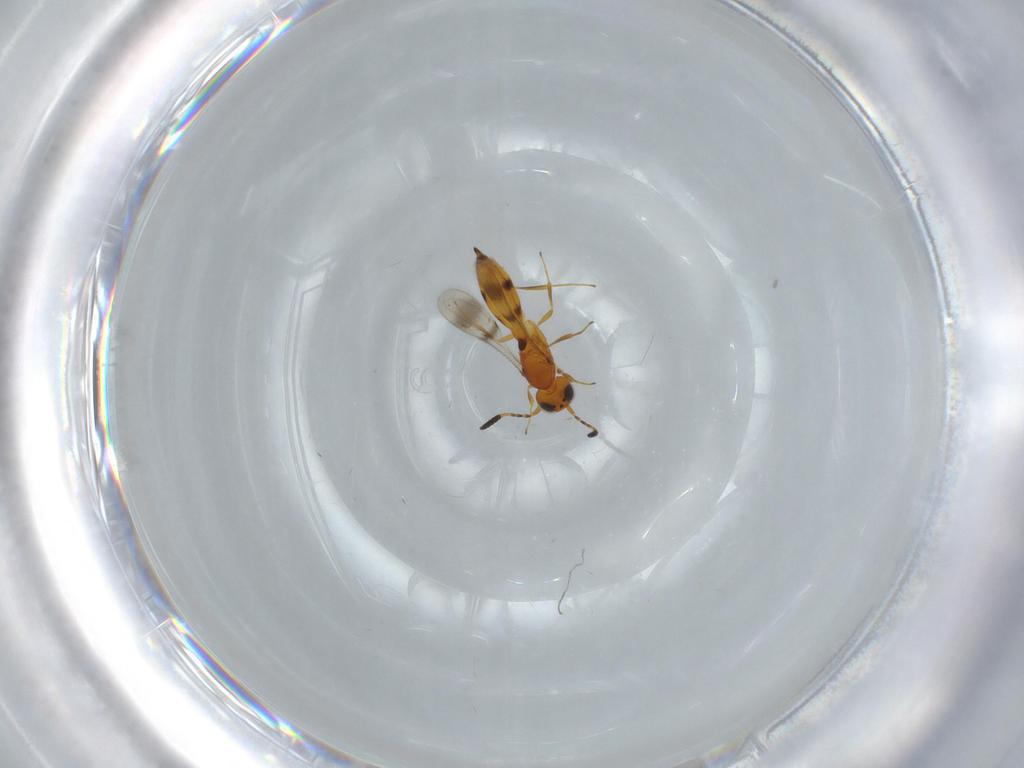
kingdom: Animalia
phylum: Arthropoda
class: Insecta
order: Hymenoptera
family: Scelionidae
